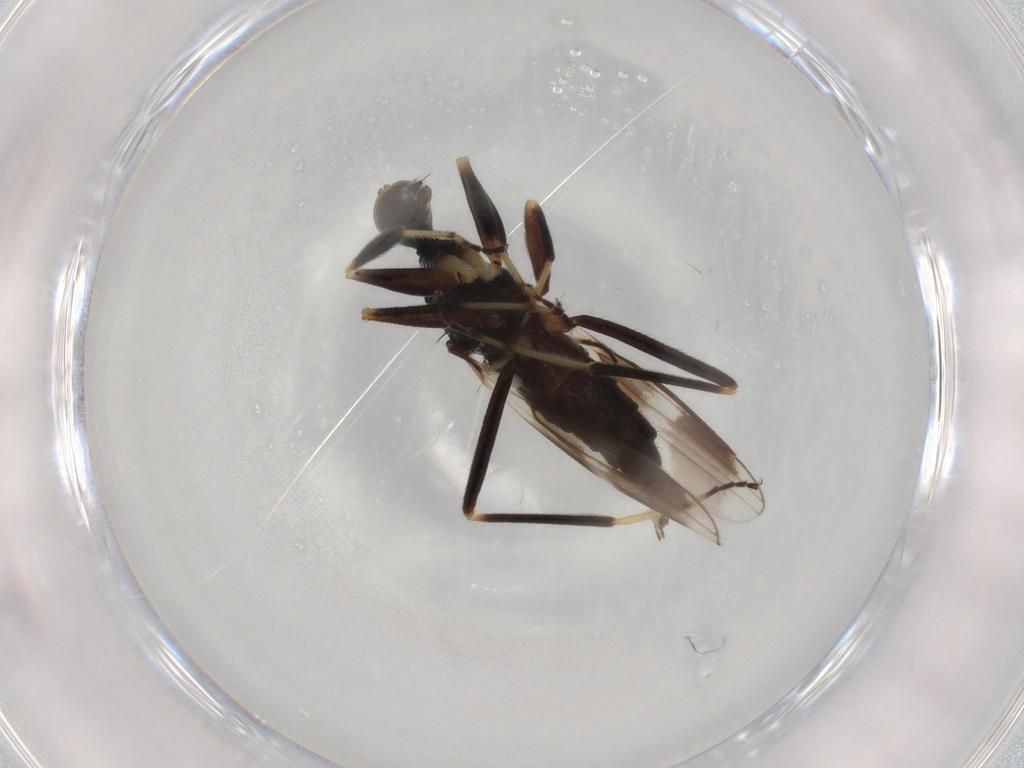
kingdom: Animalia
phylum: Arthropoda
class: Insecta
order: Diptera
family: Hybotidae
